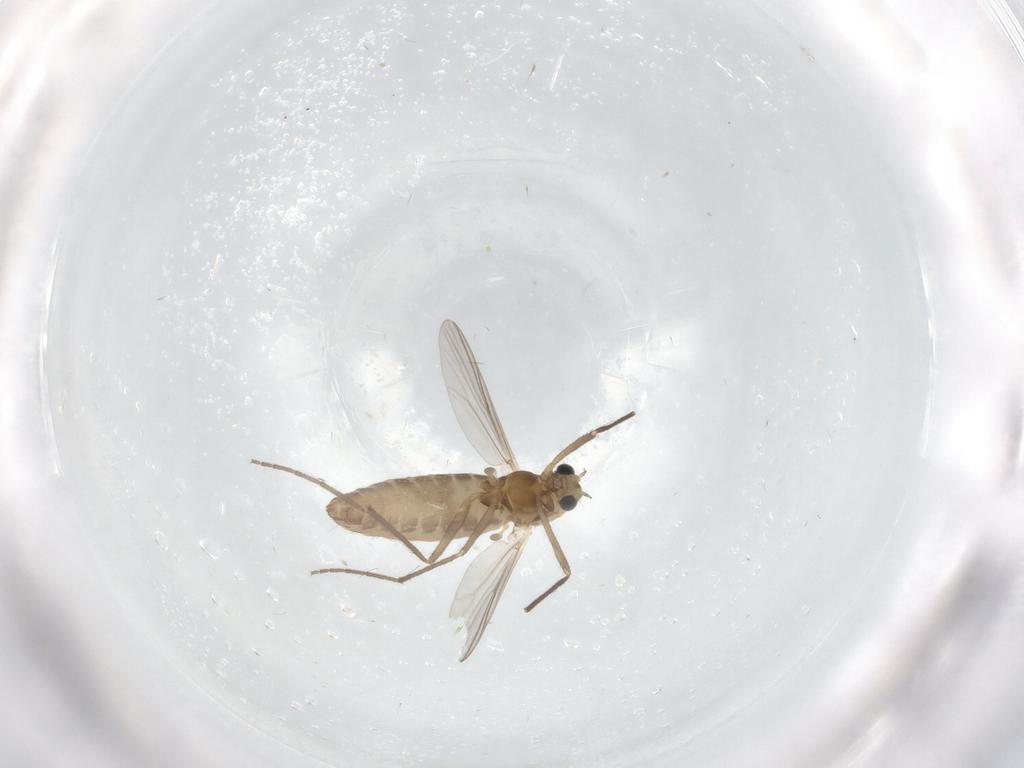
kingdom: Animalia
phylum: Arthropoda
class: Insecta
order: Diptera
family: Chironomidae
